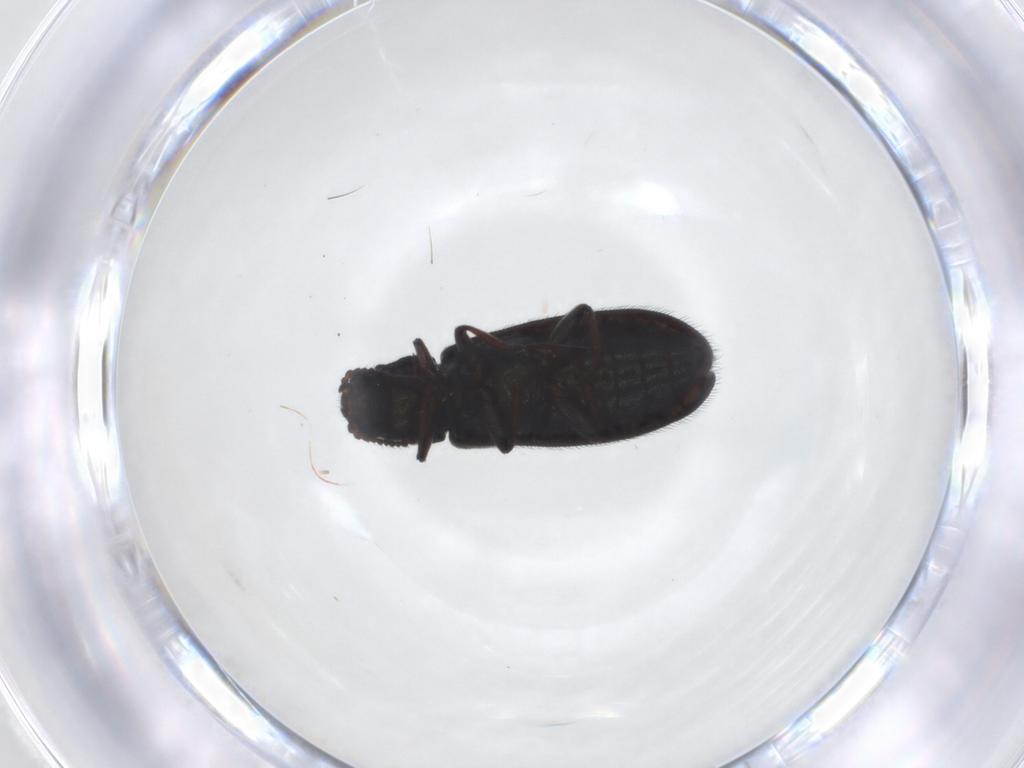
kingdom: Animalia
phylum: Arthropoda
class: Insecta
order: Coleoptera
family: Melyridae
